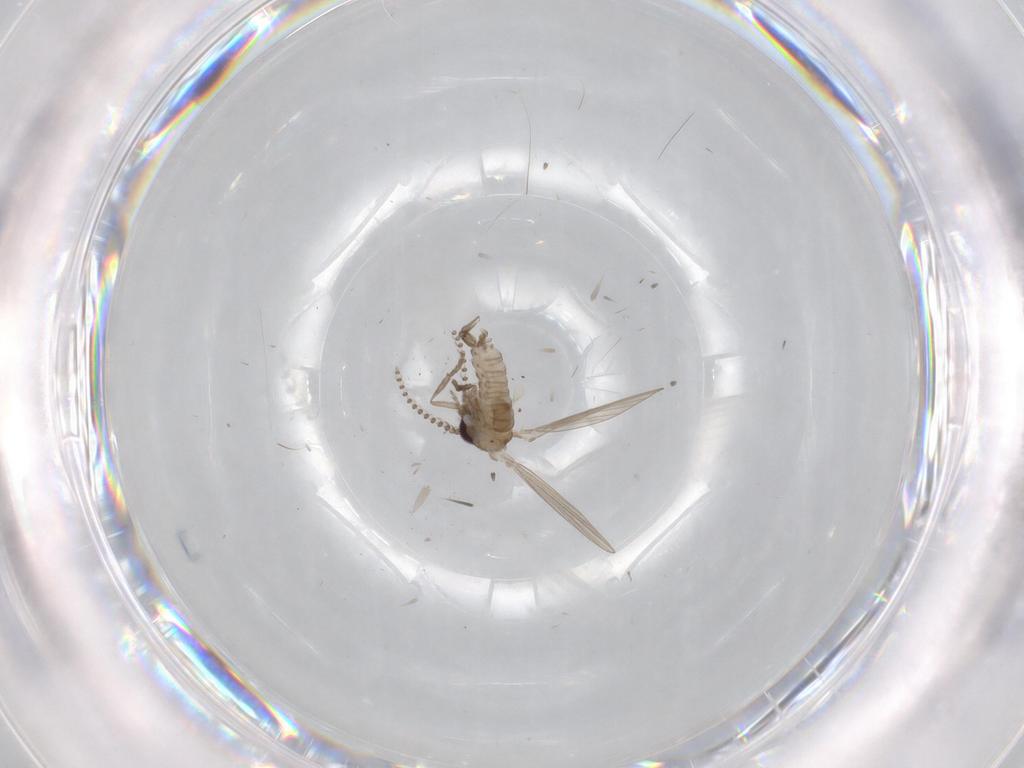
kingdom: Animalia
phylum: Arthropoda
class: Insecta
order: Diptera
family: Psychodidae
